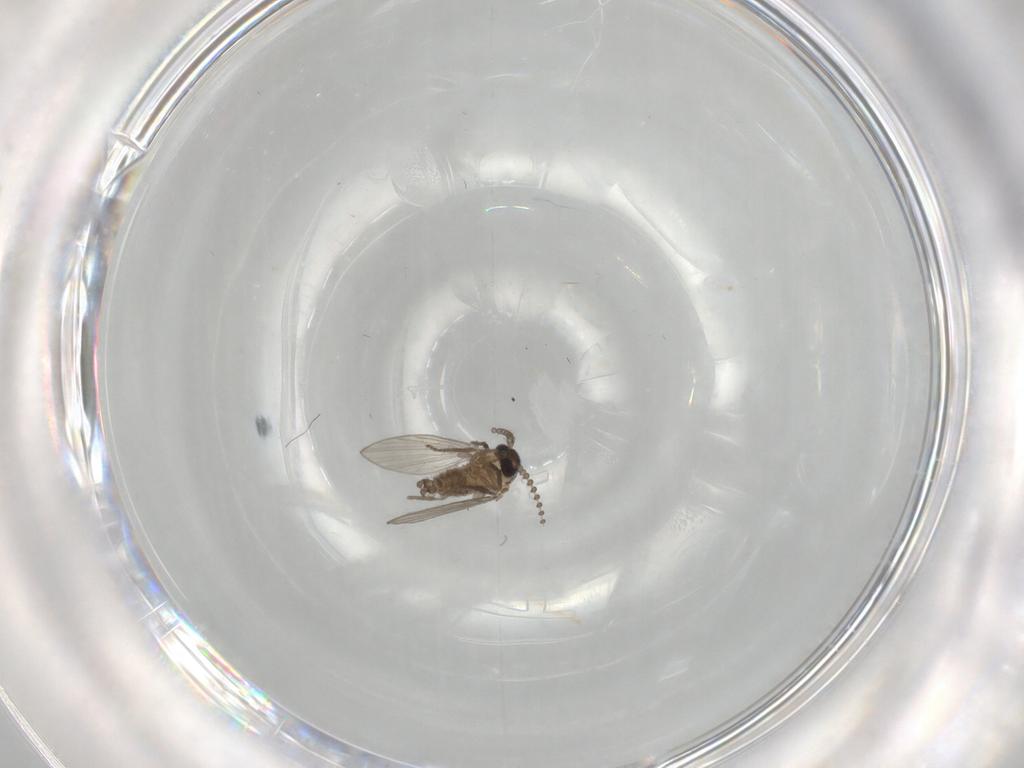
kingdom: Animalia
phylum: Arthropoda
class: Insecta
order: Diptera
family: Psychodidae
